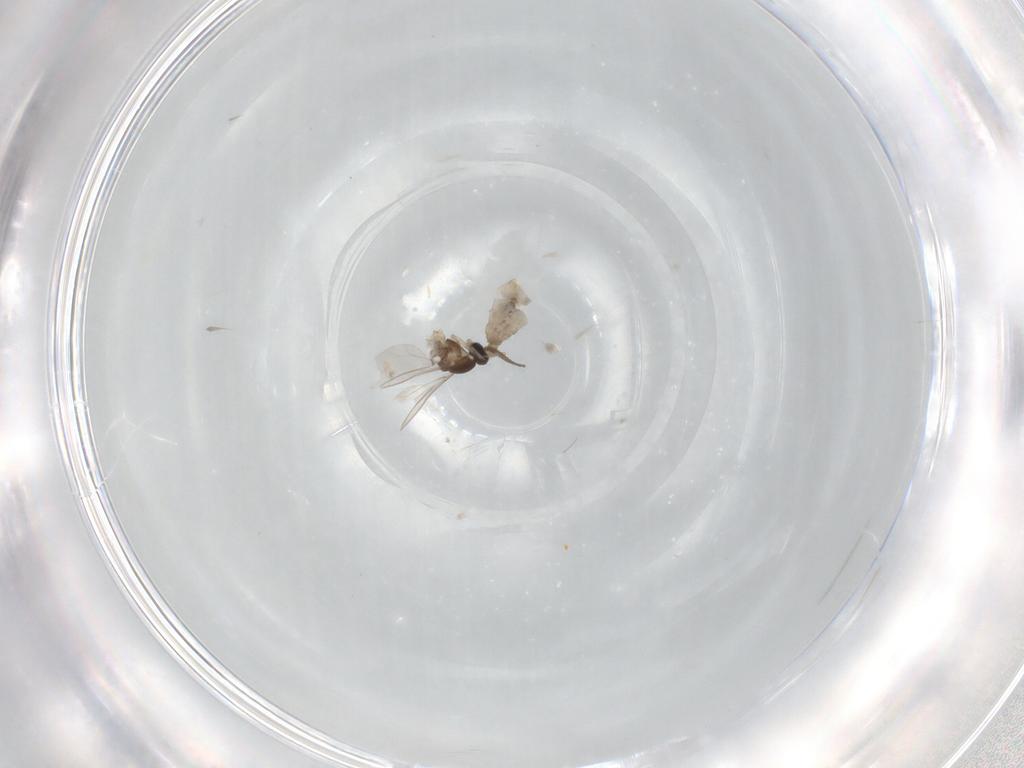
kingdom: Animalia
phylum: Arthropoda
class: Insecta
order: Diptera
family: Cecidomyiidae
